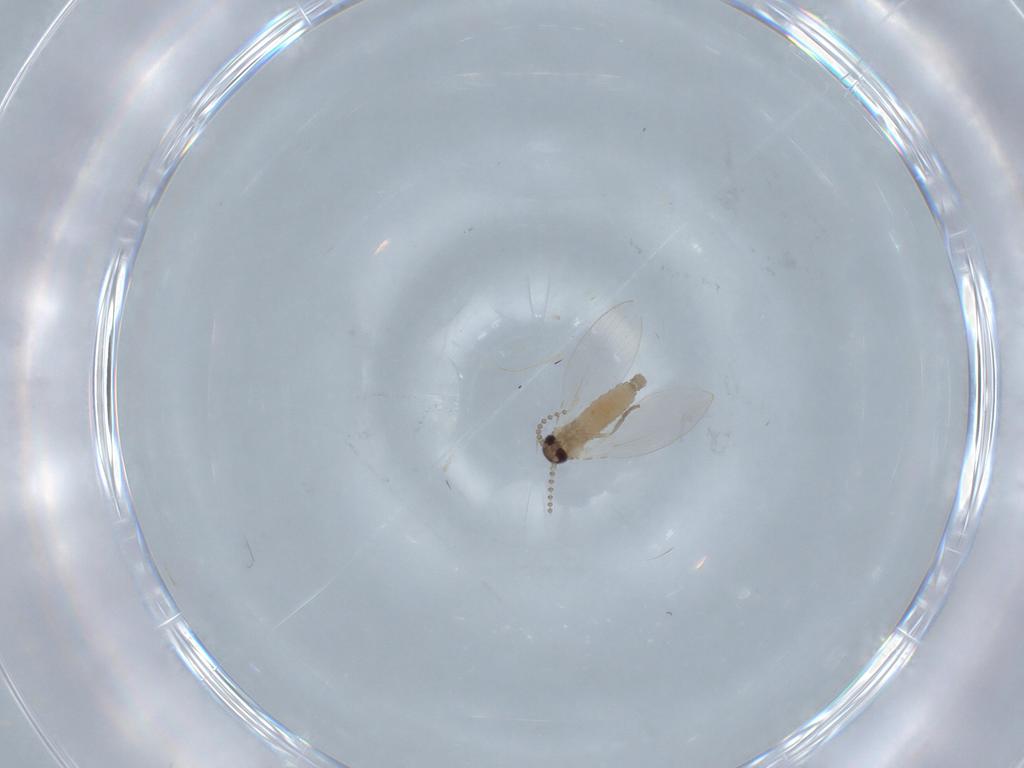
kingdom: Animalia
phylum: Arthropoda
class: Insecta
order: Diptera
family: Psychodidae
